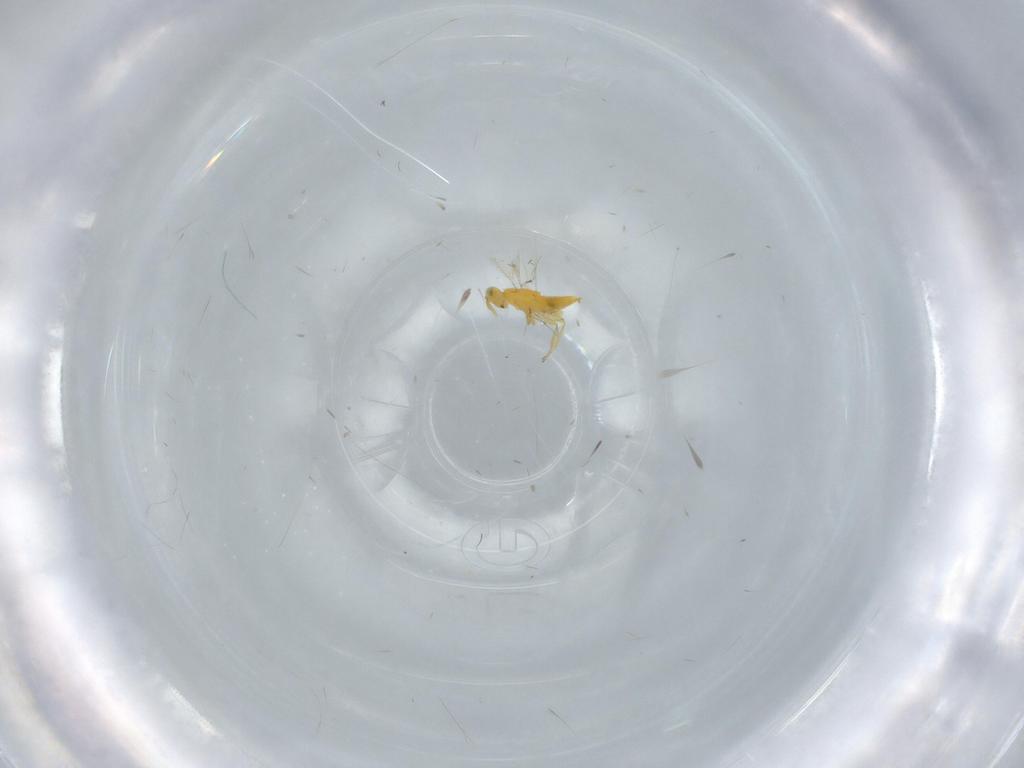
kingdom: Animalia
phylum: Arthropoda
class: Insecta
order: Hymenoptera
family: Aphelinidae
